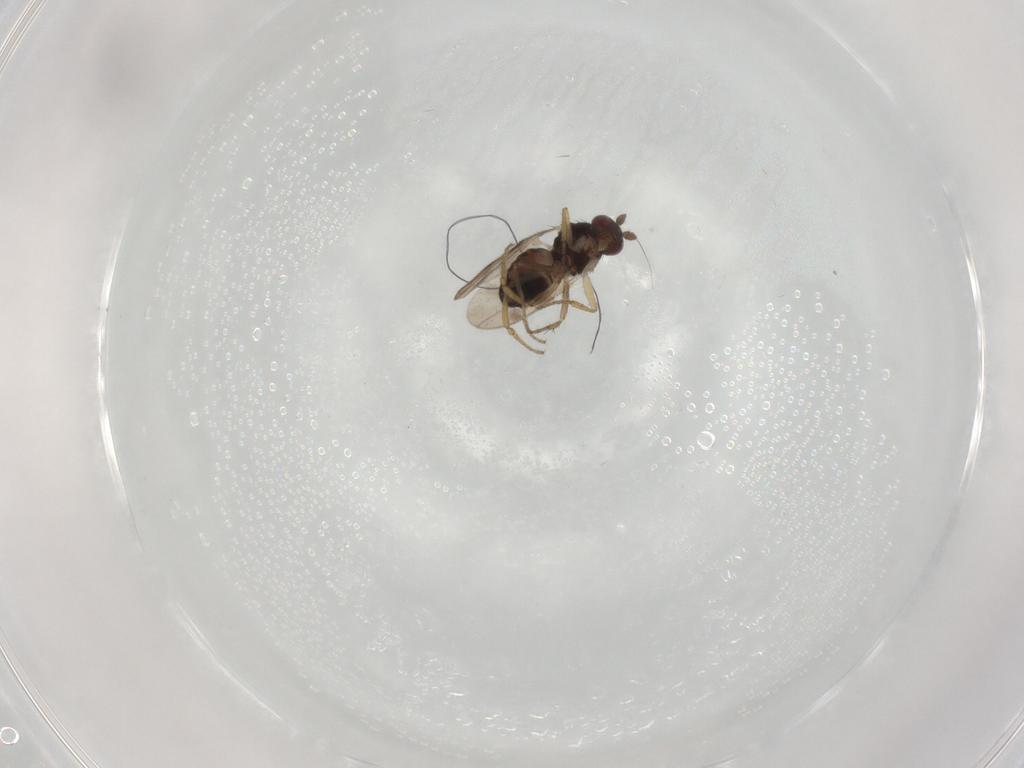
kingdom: Animalia
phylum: Arthropoda
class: Insecta
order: Diptera
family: Sphaeroceridae
